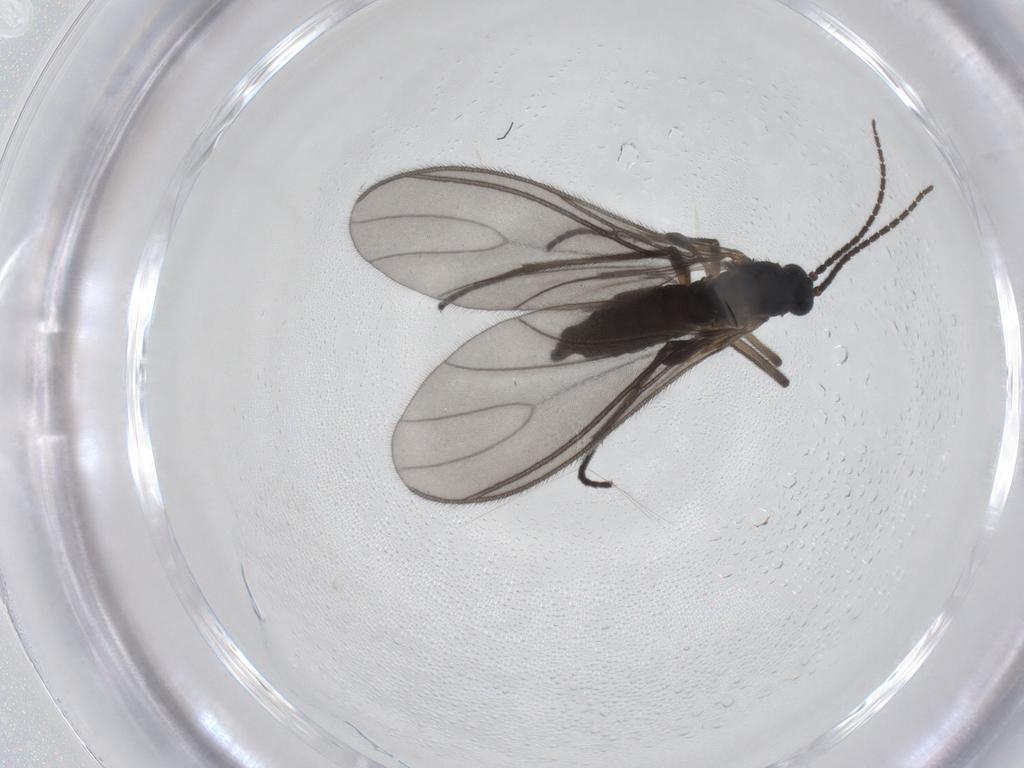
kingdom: Animalia
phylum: Arthropoda
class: Insecta
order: Diptera
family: Sciaridae
